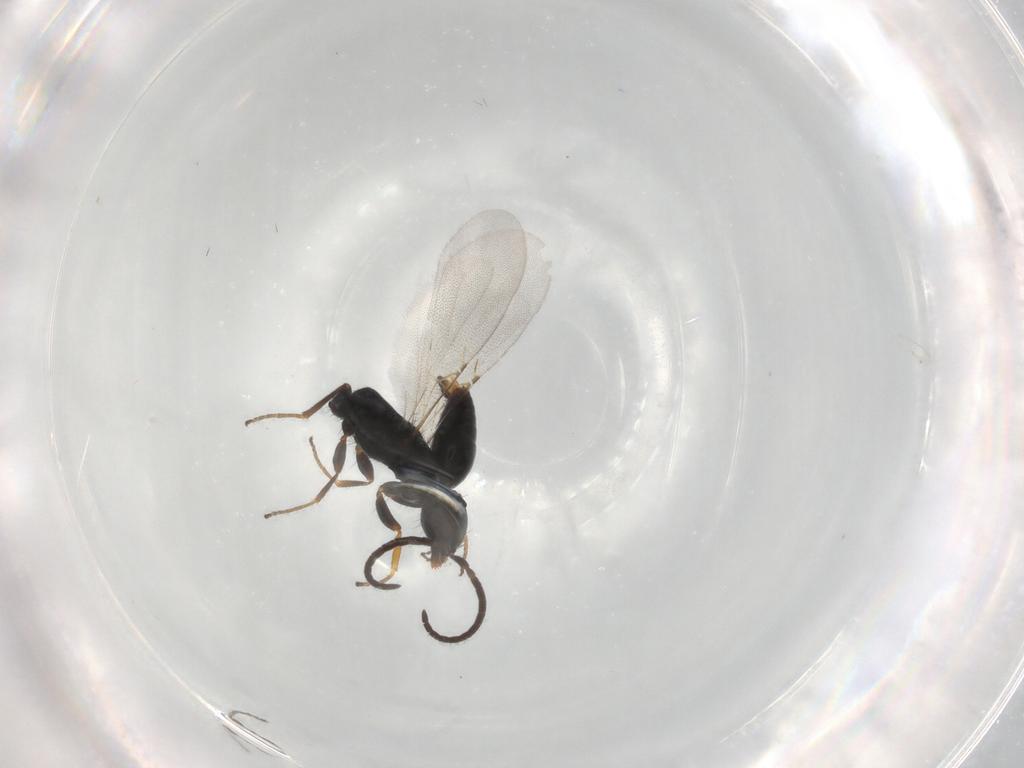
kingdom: Animalia
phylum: Arthropoda
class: Insecta
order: Hymenoptera
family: Bethylidae
